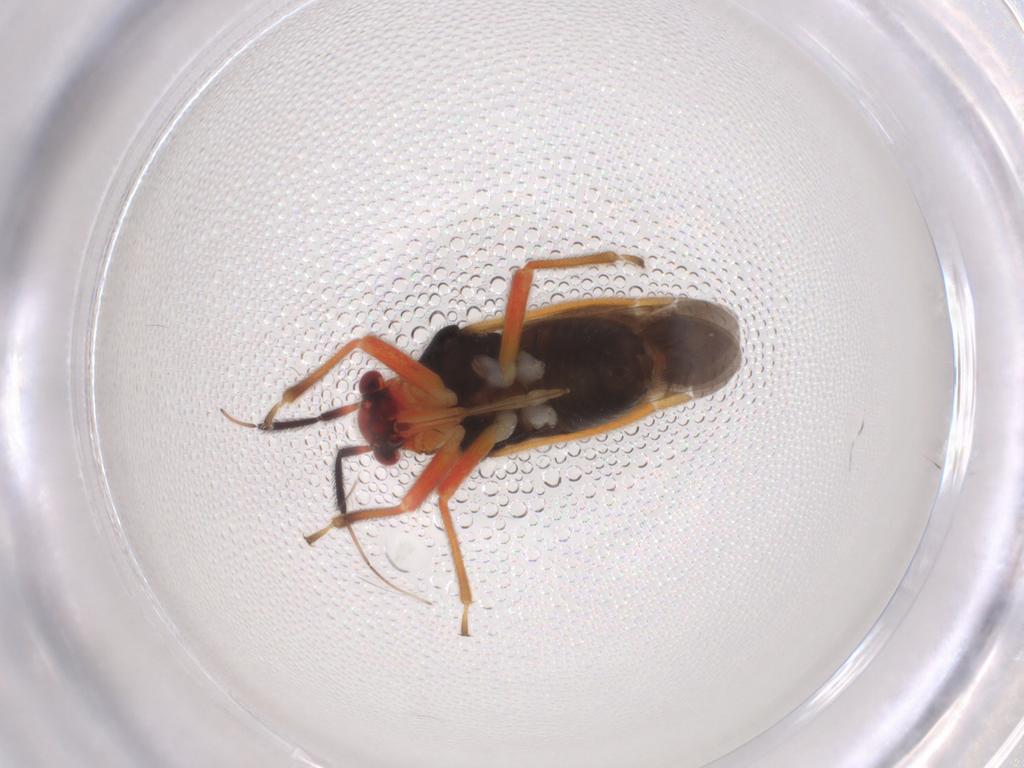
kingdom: Animalia
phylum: Arthropoda
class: Insecta
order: Hemiptera
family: Miridae
